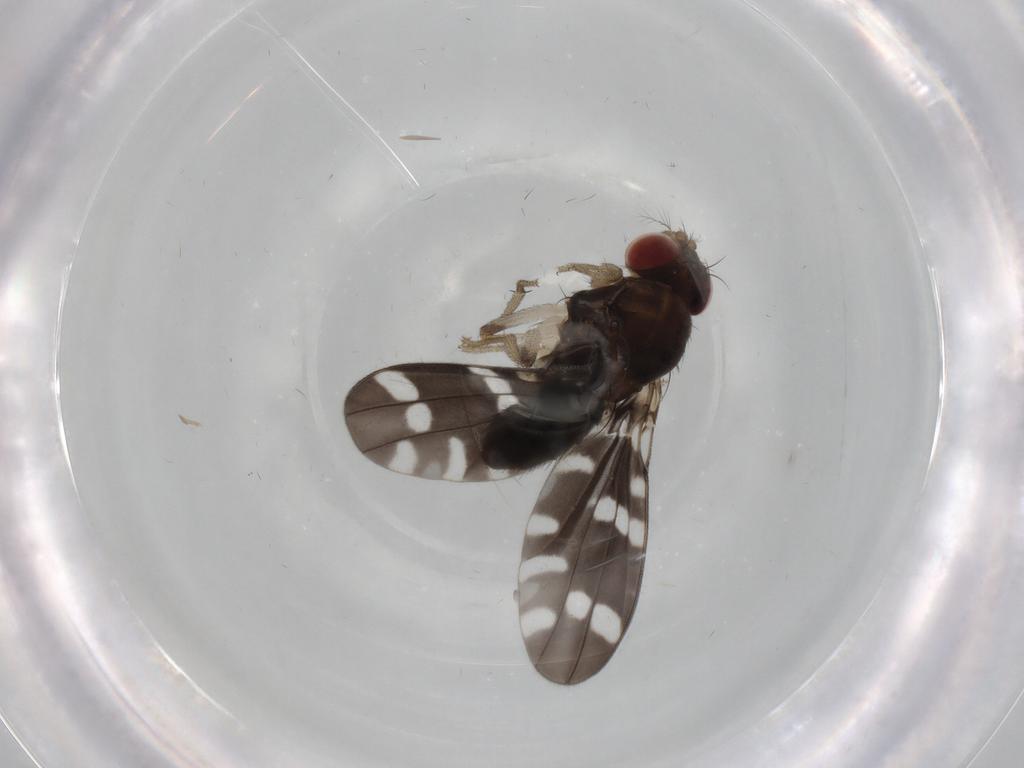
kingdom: Animalia
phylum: Arthropoda
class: Insecta
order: Diptera
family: Drosophilidae
